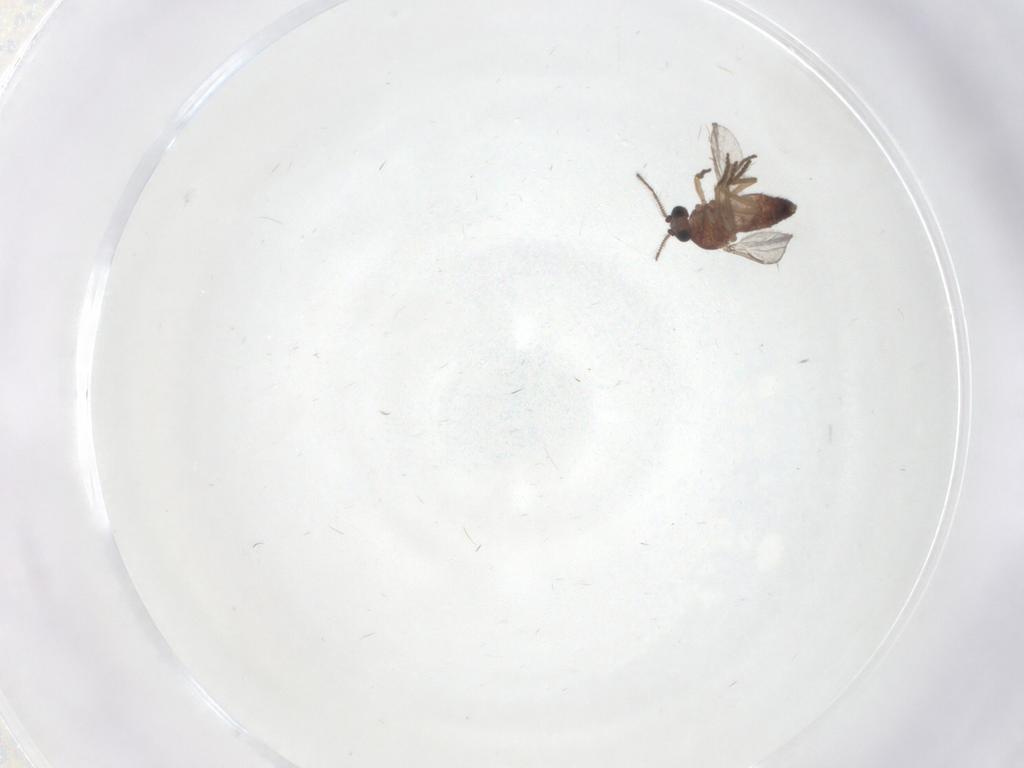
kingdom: Animalia
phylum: Arthropoda
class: Insecta
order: Diptera
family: Ceratopogonidae
